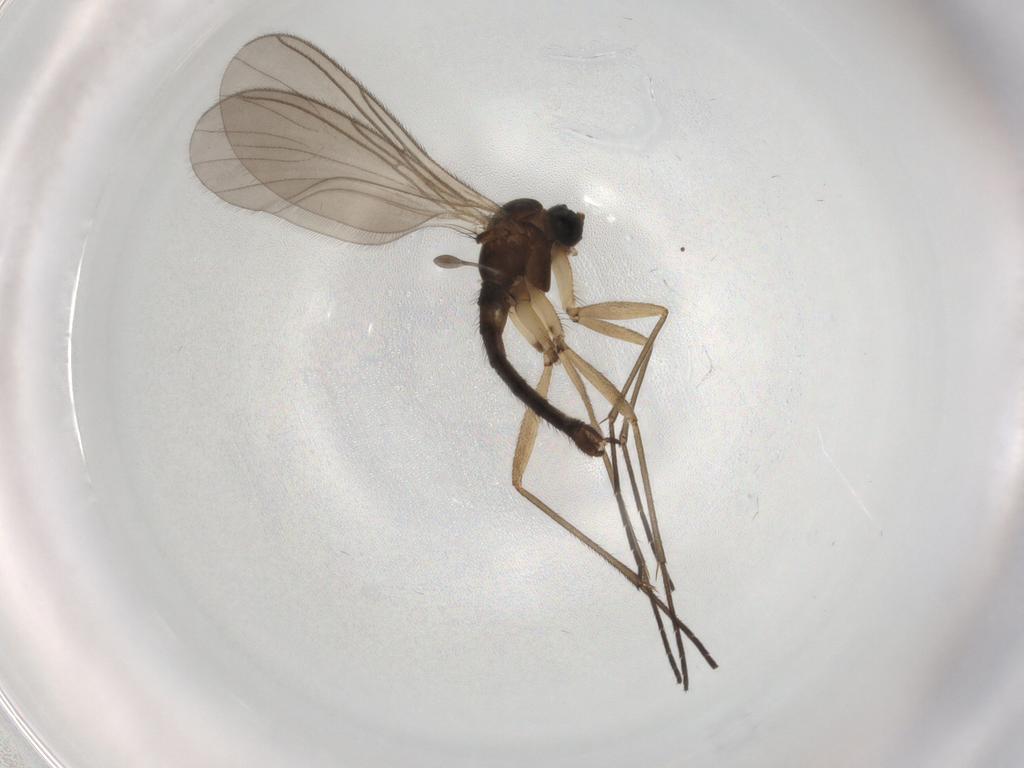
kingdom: Animalia
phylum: Arthropoda
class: Insecta
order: Diptera
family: Sciaridae
